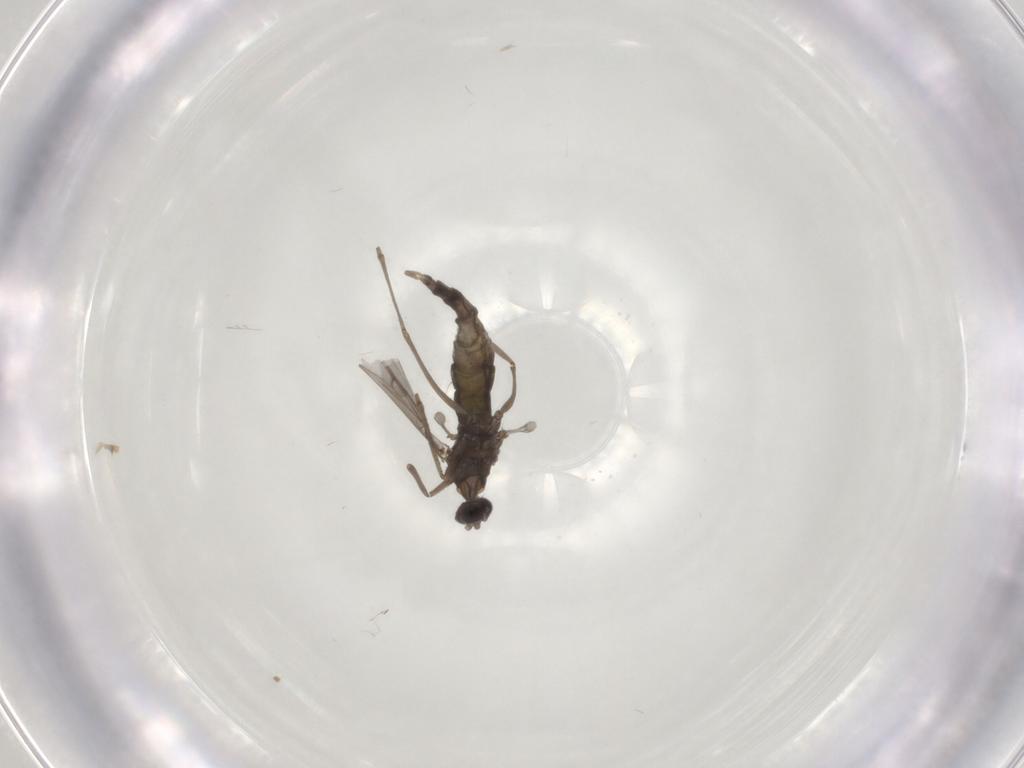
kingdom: Animalia
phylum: Arthropoda
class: Insecta
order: Diptera
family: Cecidomyiidae
